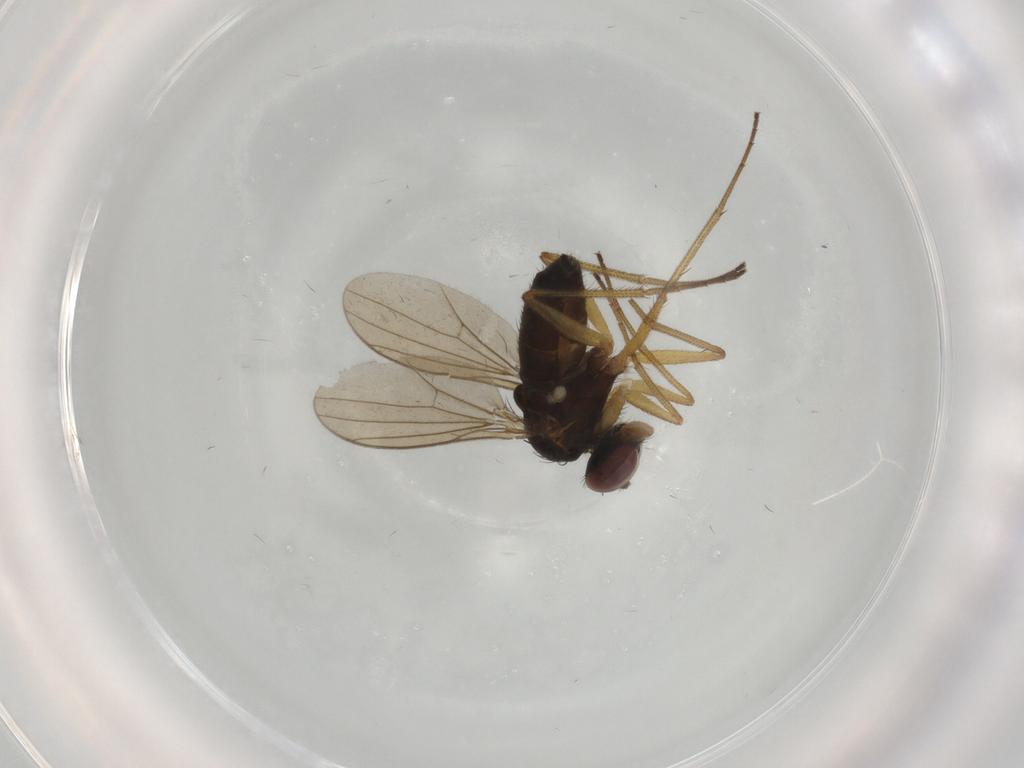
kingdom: Animalia
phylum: Arthropoda
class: Insecta
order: Diptera
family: Dolichopodidae
